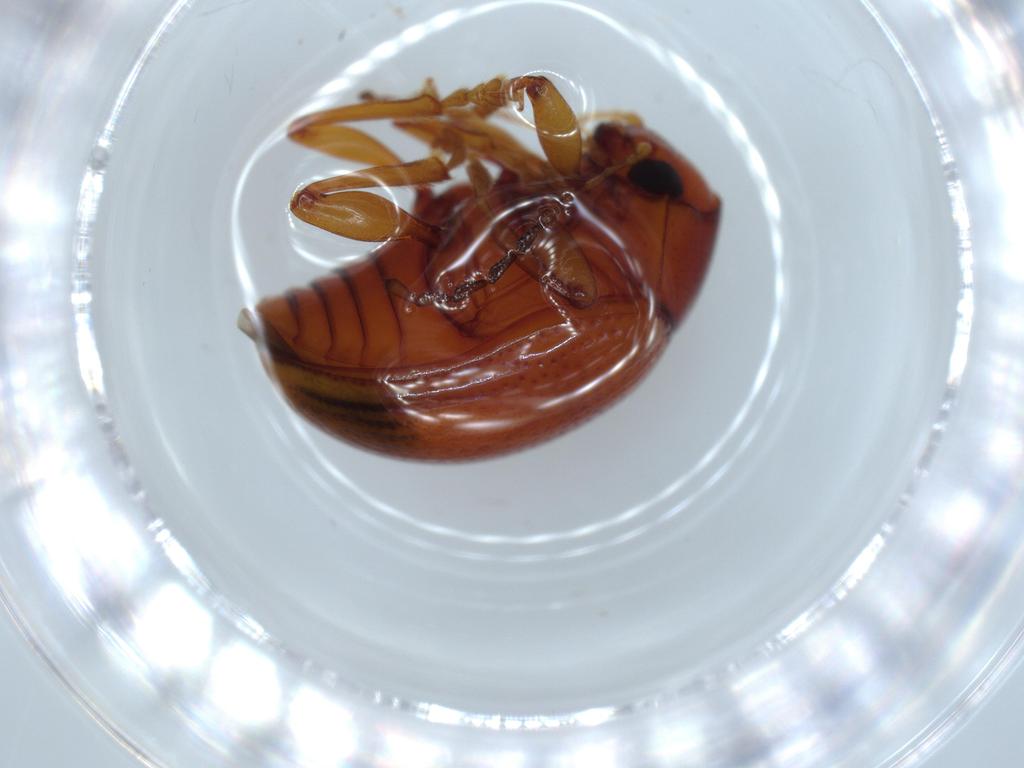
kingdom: Animalia
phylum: Arthropoda
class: Insecta
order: Coleoptera
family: Chrysomelidae
